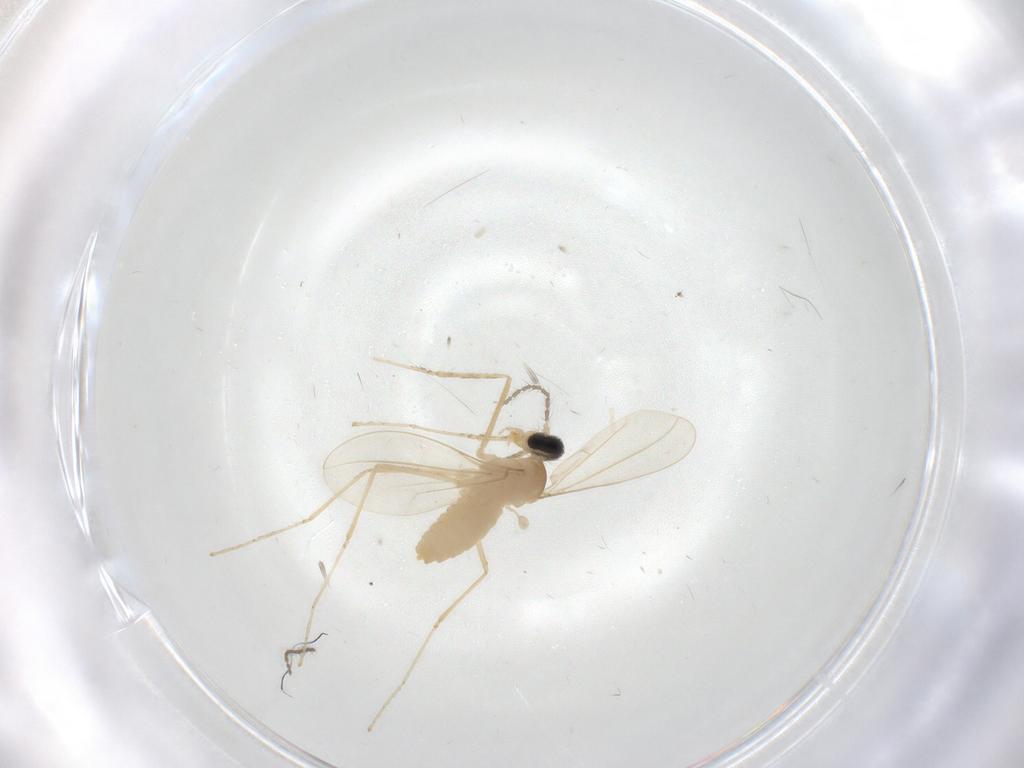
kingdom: Animalia
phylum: Arthropoda
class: Insecta
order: Diptera
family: Cecidomyiidae
